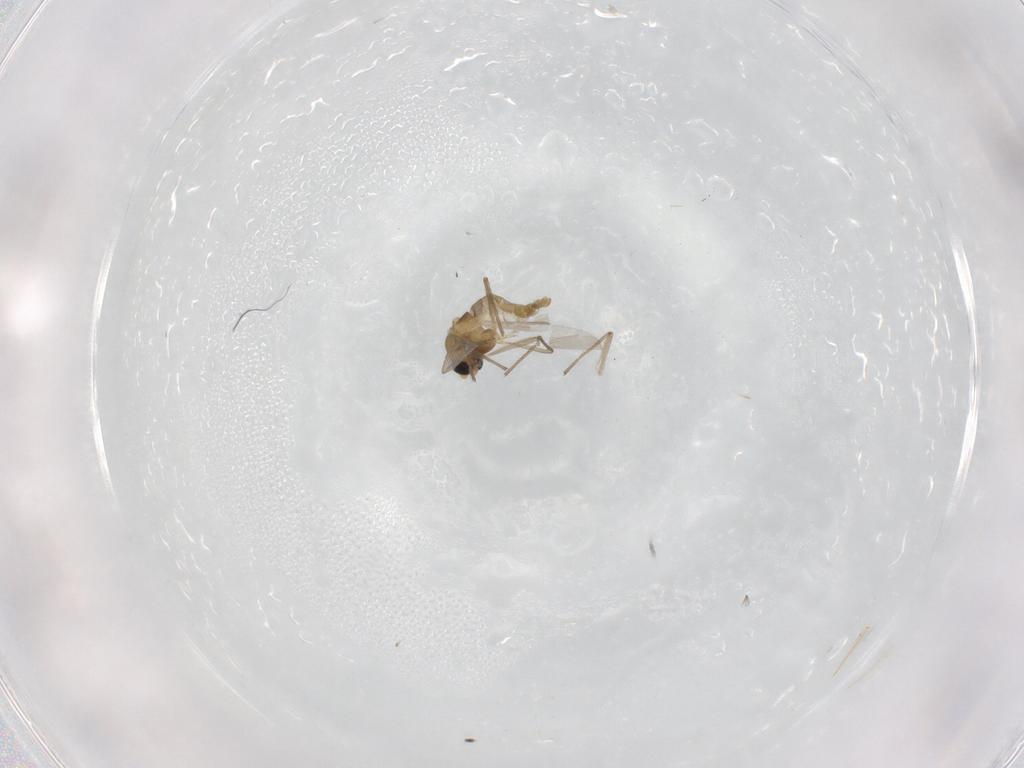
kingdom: Animalia
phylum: Arthropoda
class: Insecta
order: Diptera
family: Chironomidae
